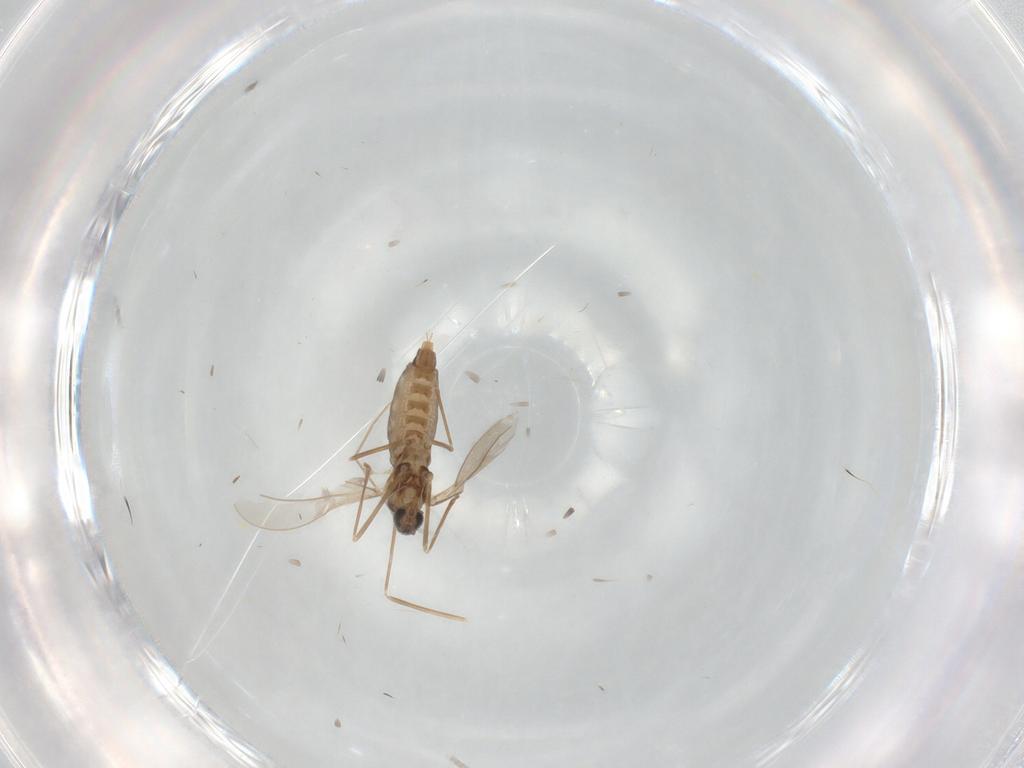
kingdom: Animalia
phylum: Arthropoda
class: Insecta
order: Diptera
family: Cecidomyiidae
